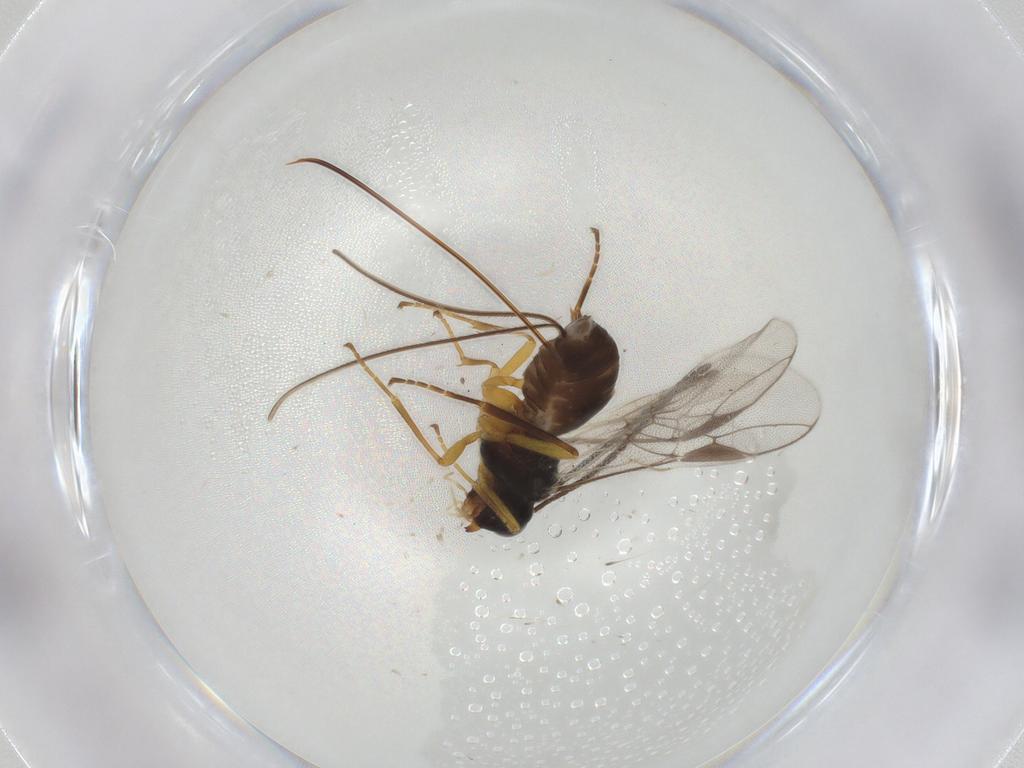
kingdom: Animalia
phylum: Arthropoda
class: Insecta
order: Hymenoptera
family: Braconidae
